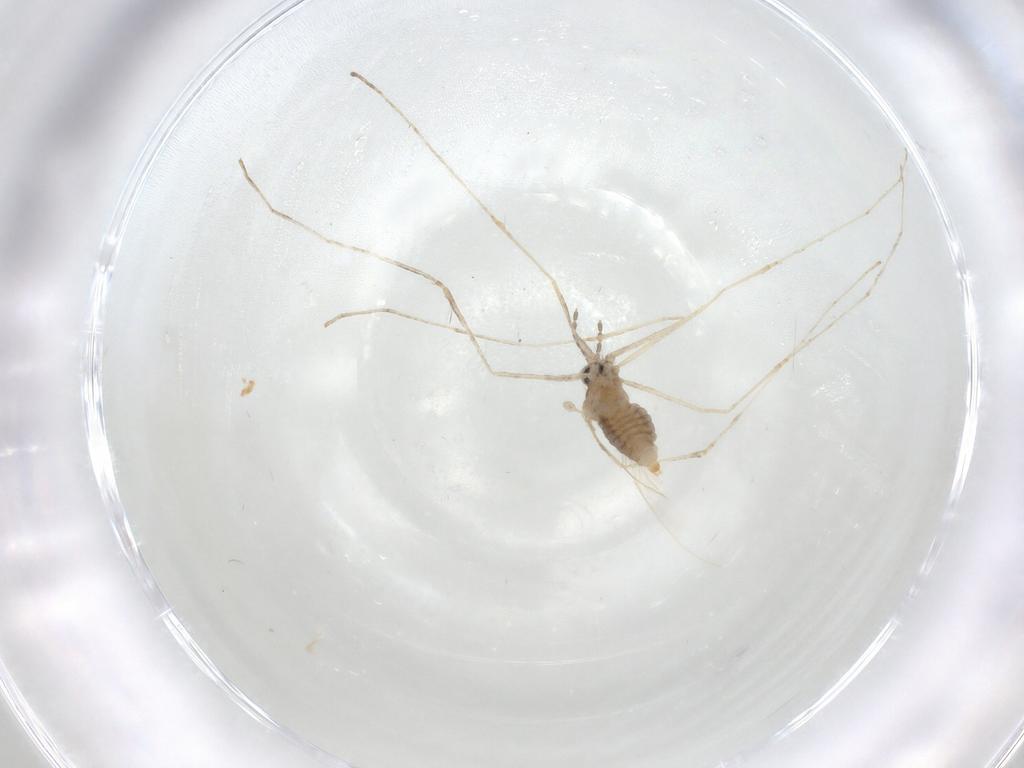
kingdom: Animalia
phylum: Arthropoda
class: Insecta
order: Diptera
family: Cecidomyiidae
